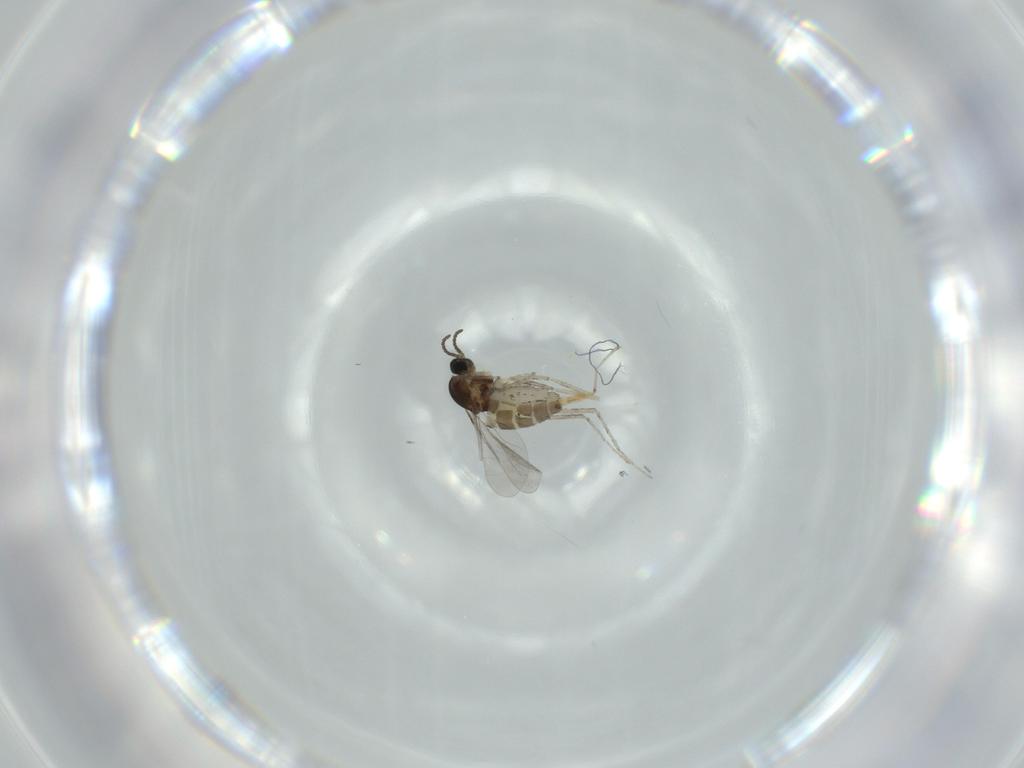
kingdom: Animalia
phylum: Arthropoda
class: Insecta
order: Diptera
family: Cecidomyiidae
